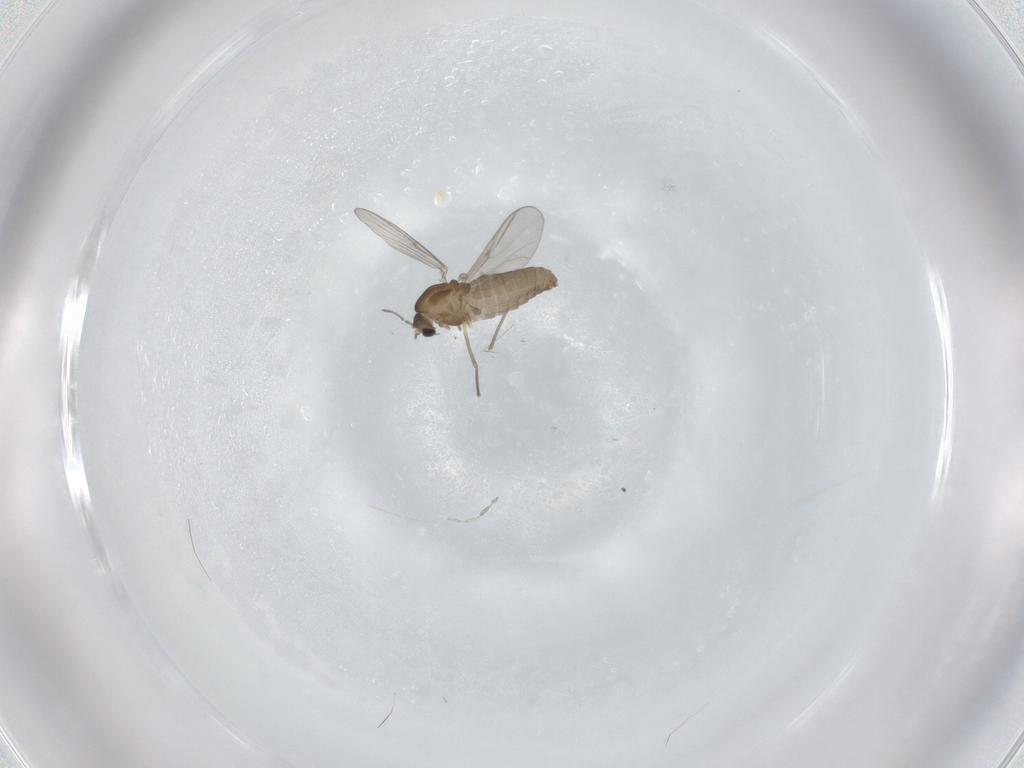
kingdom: Animalia
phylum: Arthropoda
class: Insecta
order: Diptera
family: Chironomidae
